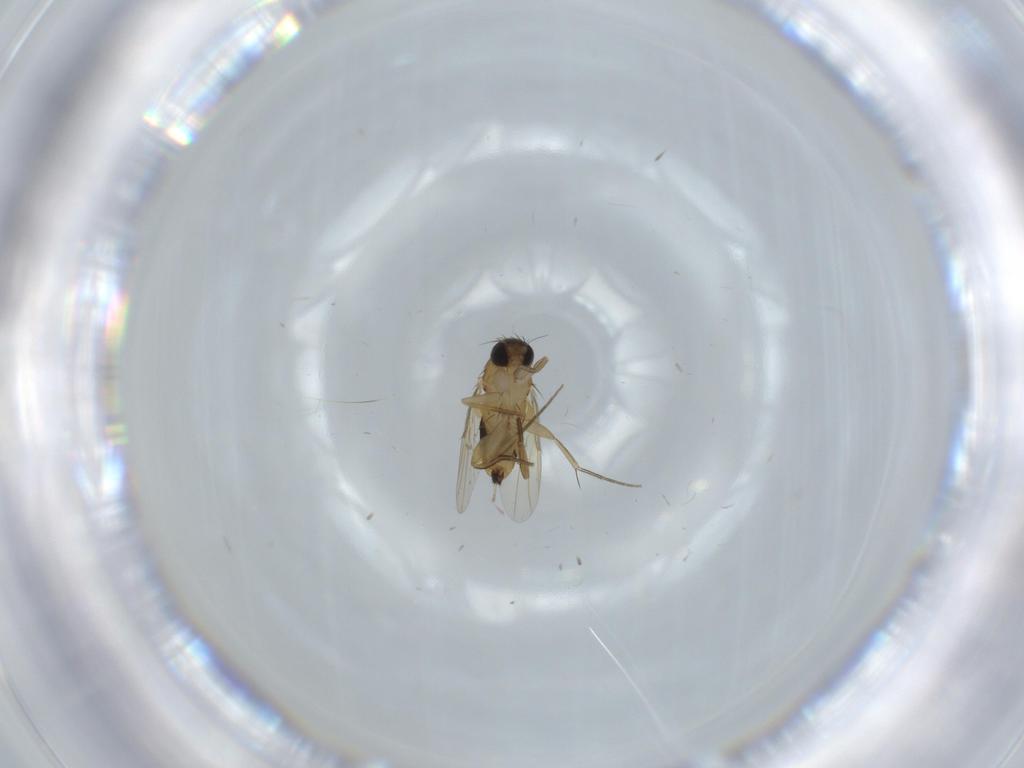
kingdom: Animalia
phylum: Arthropoda
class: Insecta
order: Diptera
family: Phoridae
